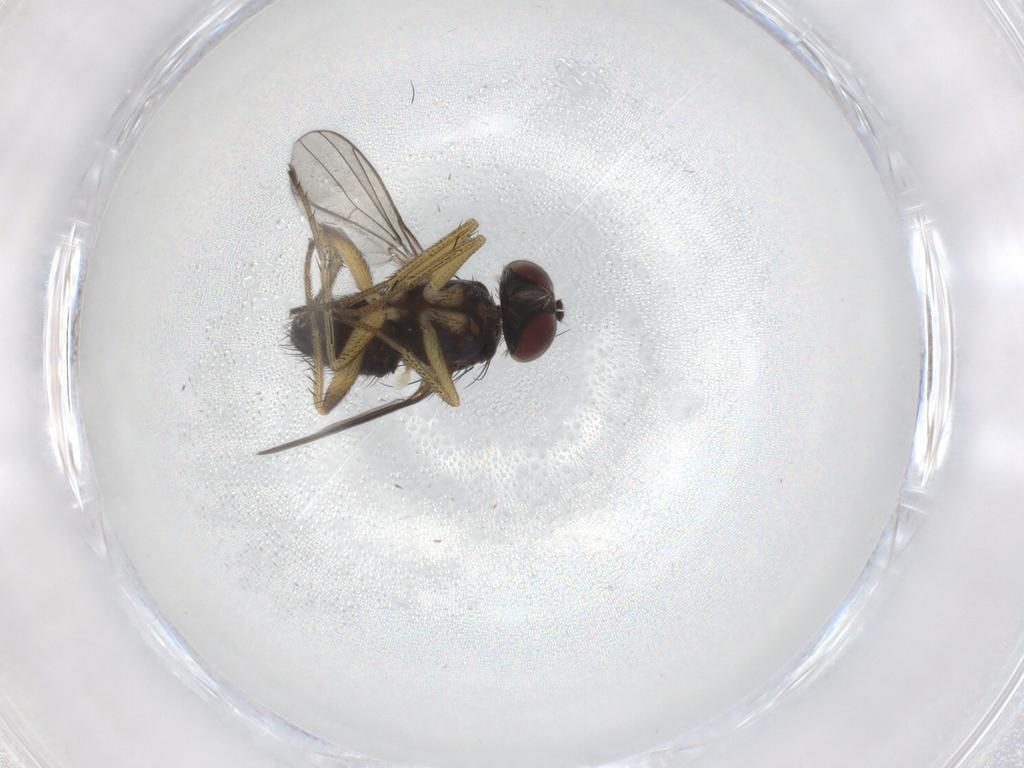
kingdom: Animalia
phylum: Arthropoda
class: Insecta
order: Diptera
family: Dolichopodidae
